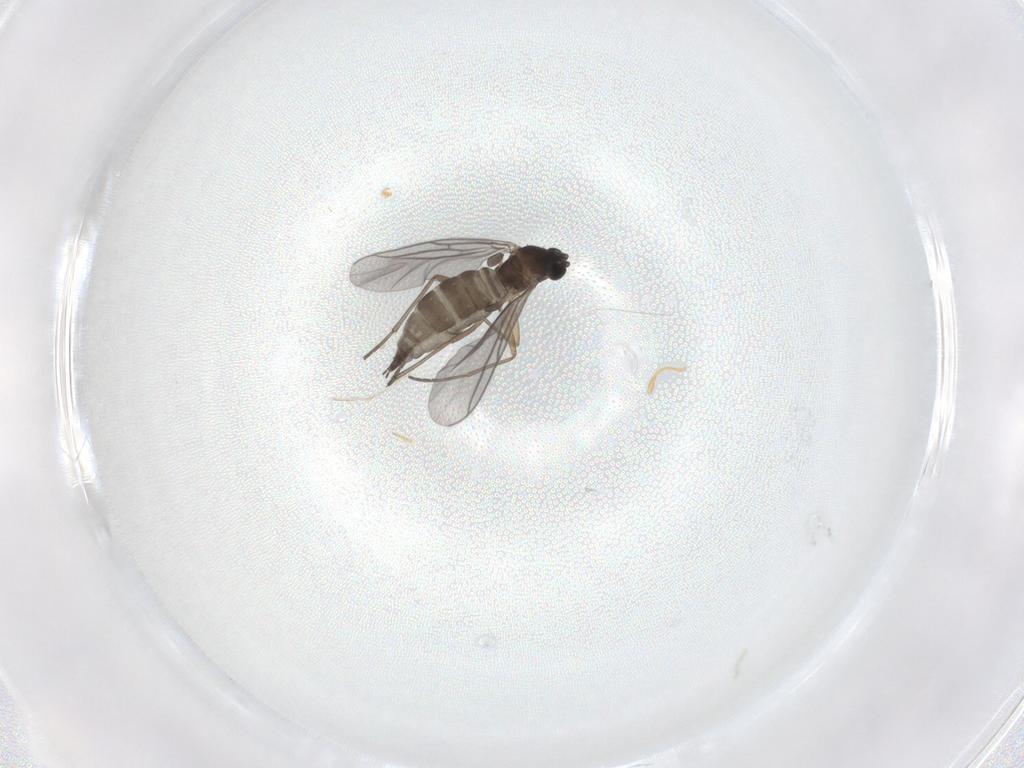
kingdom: Animalia
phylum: Arthropoda
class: Insecta
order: Diptera
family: Sciaridae
